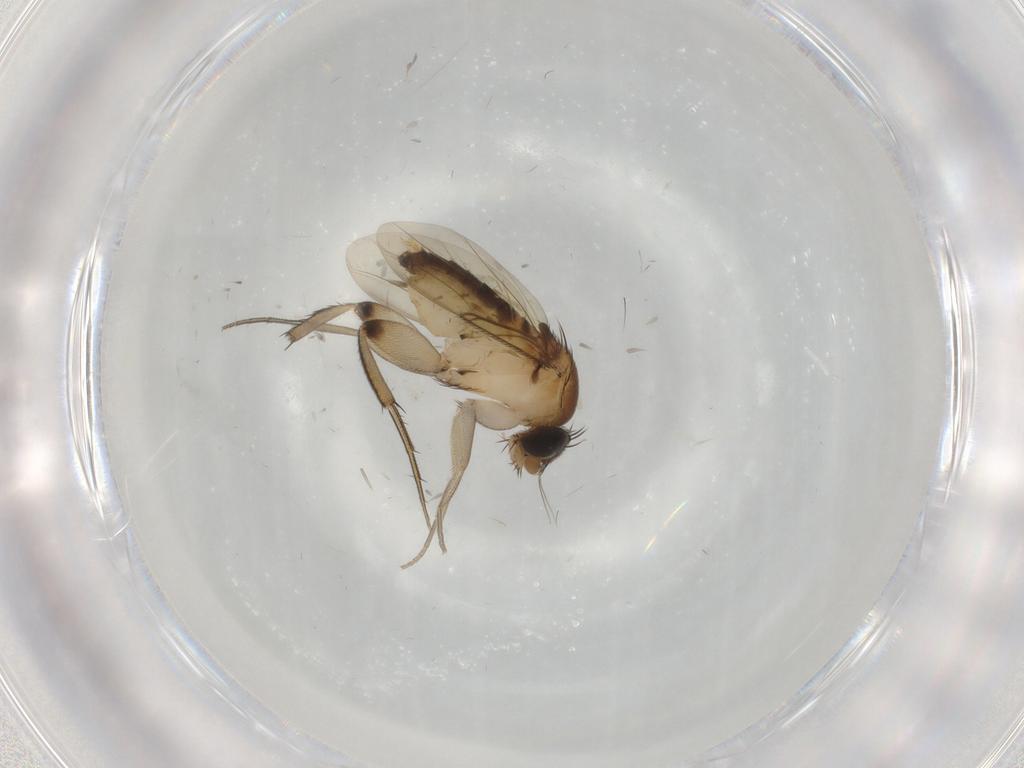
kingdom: Animalia
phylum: Arthropoda
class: Insecta
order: Diptera
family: Phoridae
